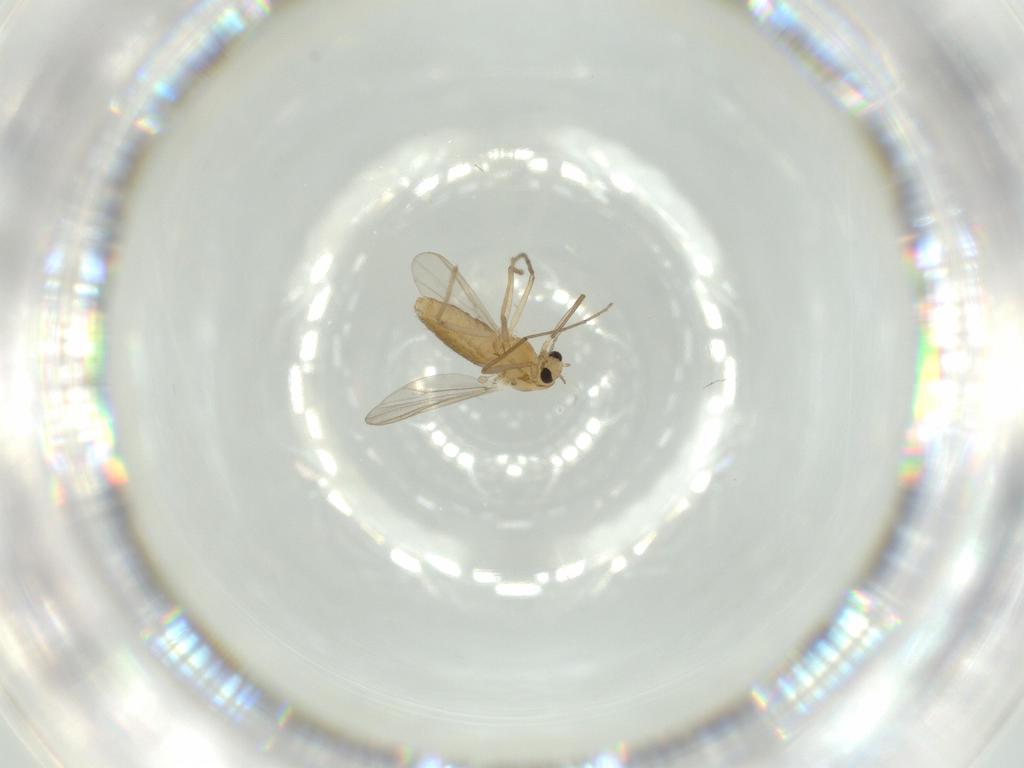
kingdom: Animalia
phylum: Arthropoda
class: Insecta
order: Diptera
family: Chironomidae
